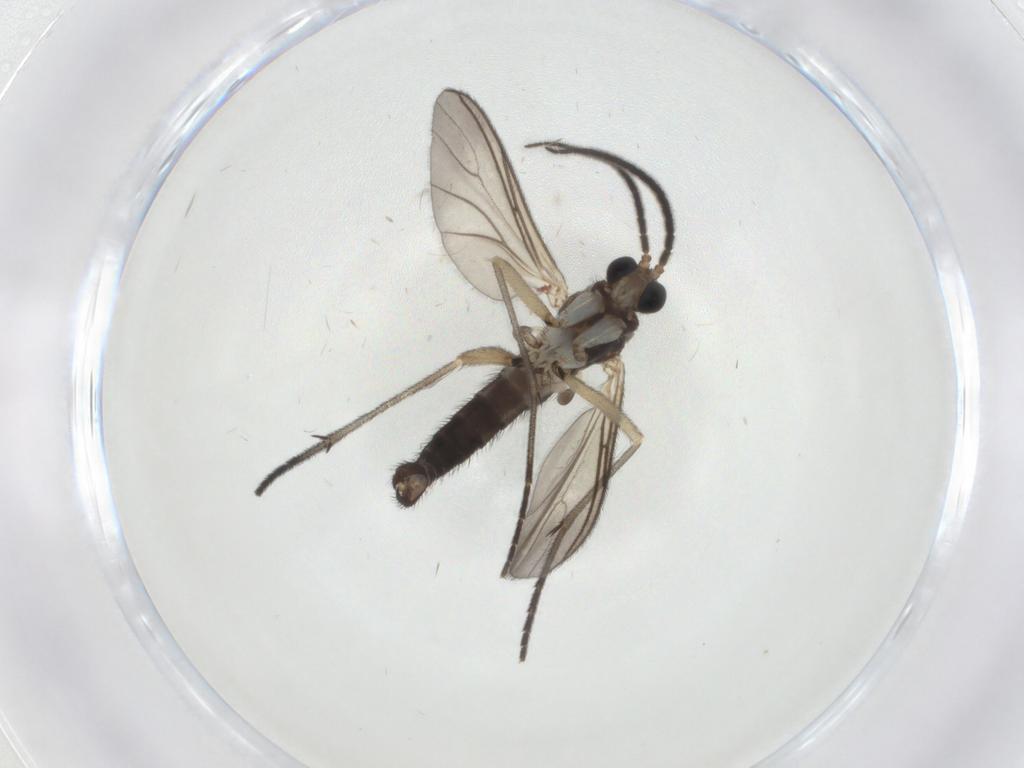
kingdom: Animalia
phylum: Arthropoda
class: Insecta
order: Diptera
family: Sciaridae
